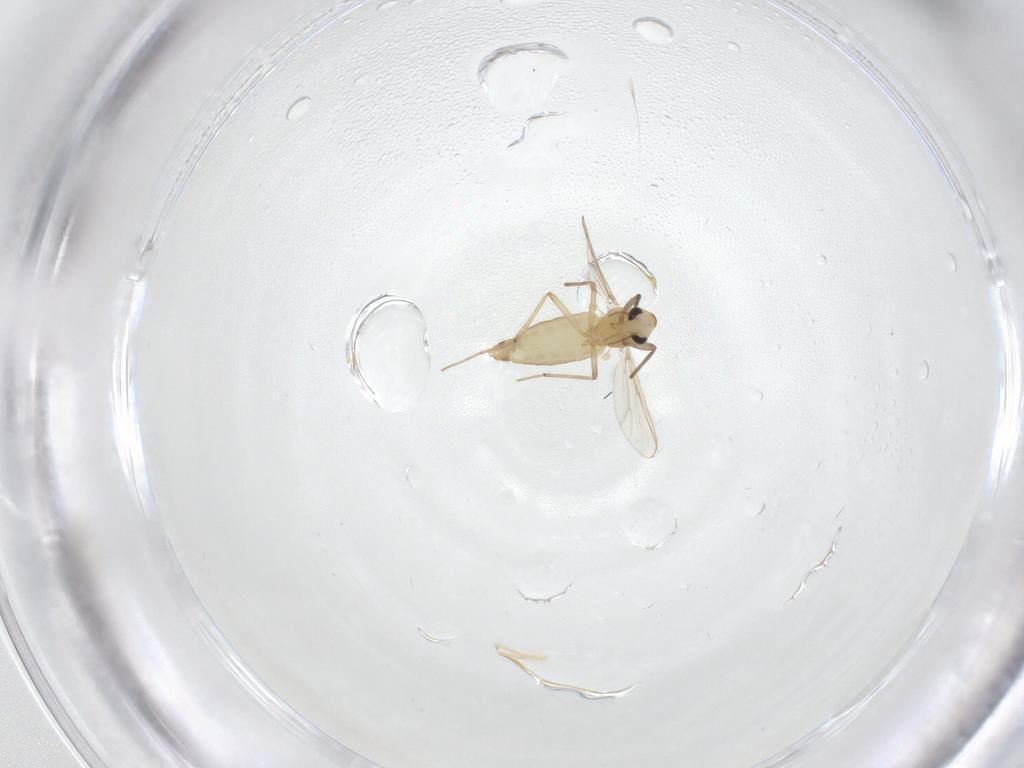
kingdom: Animalia
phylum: Arthropoda
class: Insecta
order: Diptera
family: Chironomidae
